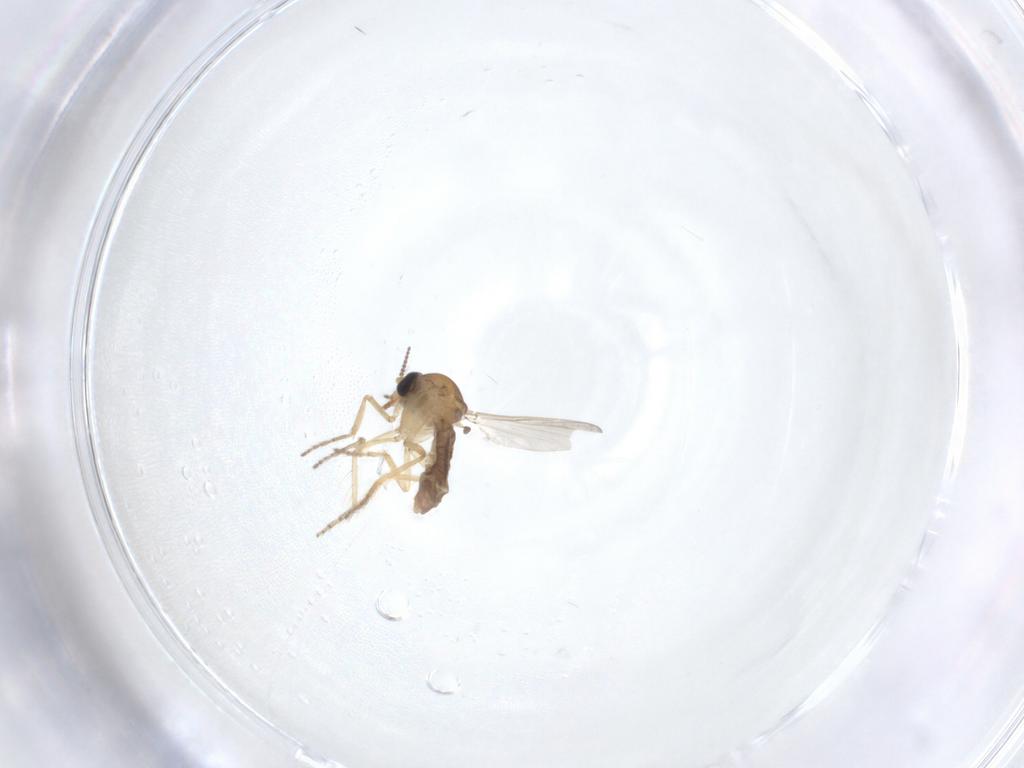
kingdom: Animalia
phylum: Arthropoda
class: Insecta
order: Diptera
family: Ceratopogonidae
